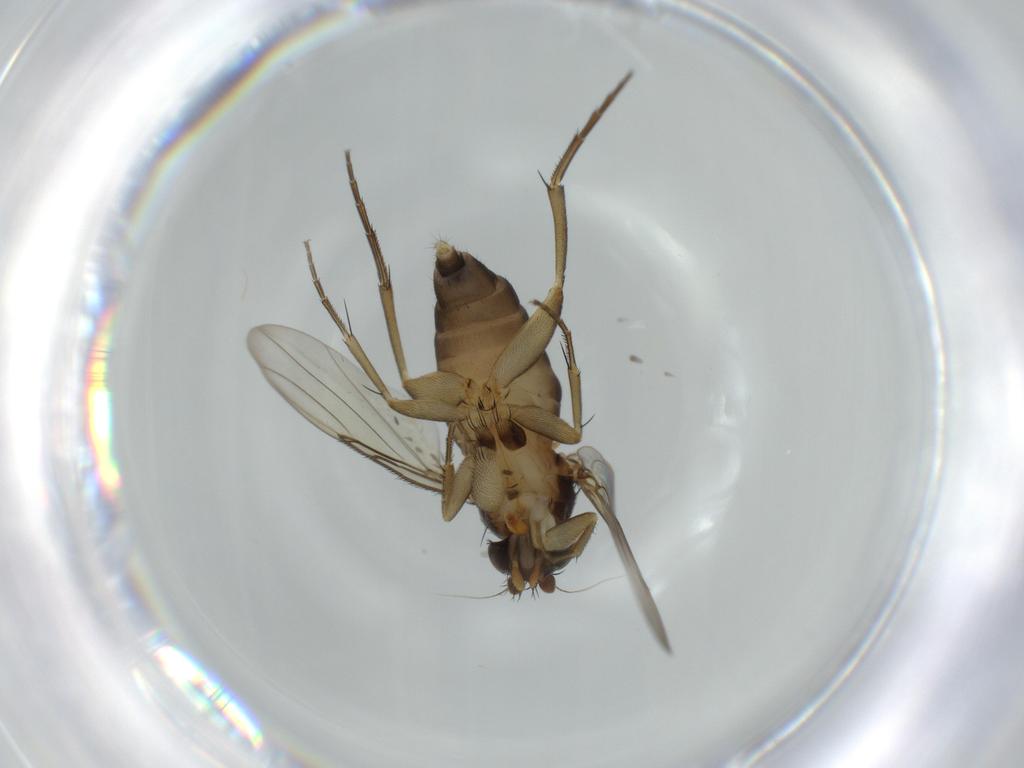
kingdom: Animalia
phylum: Arthropoda
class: Insecta
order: Diptera
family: Phoridae
